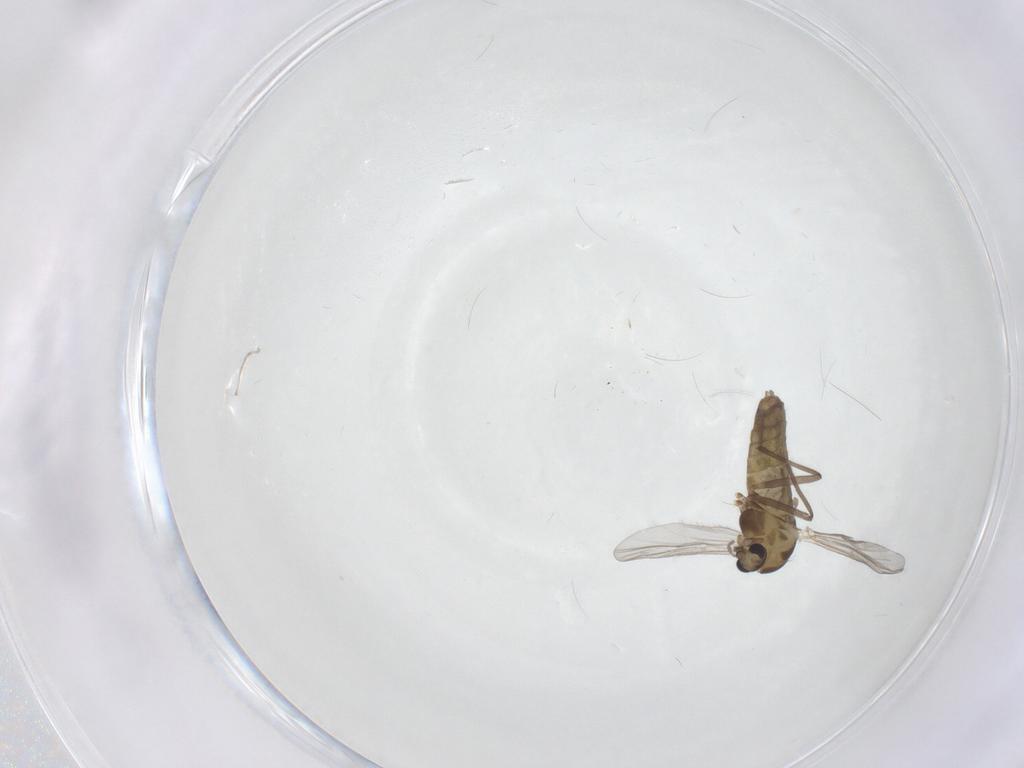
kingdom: Animalia
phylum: Arthropoda
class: Insecta
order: Diptera
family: Chironomidae
